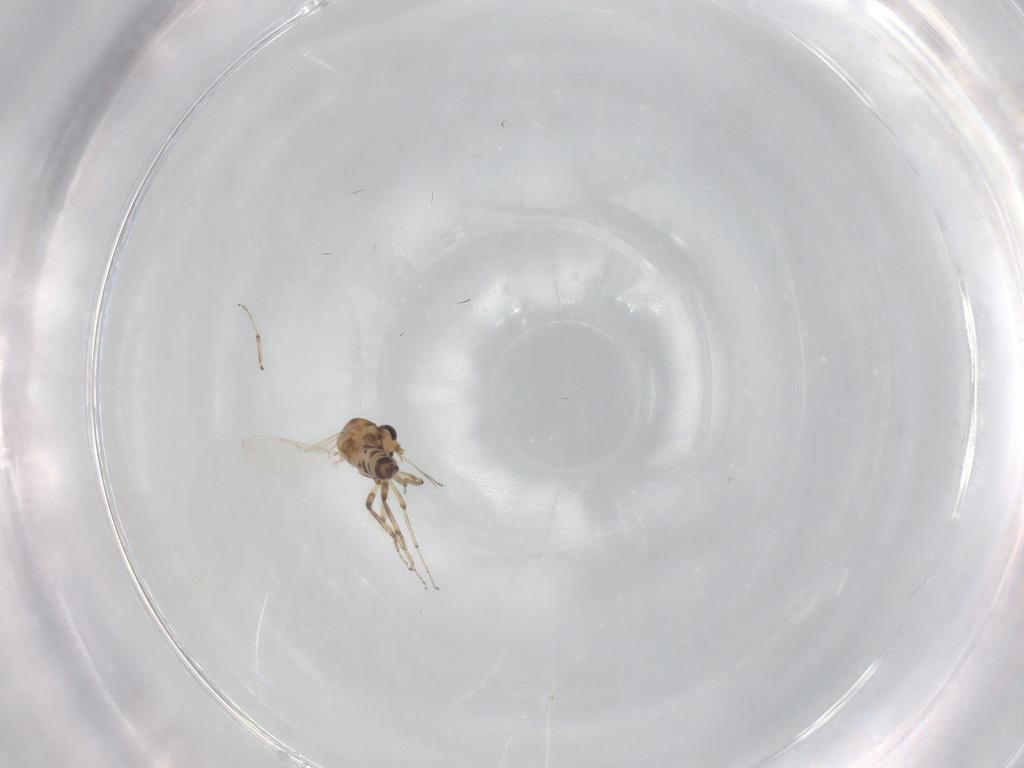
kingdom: Animalia
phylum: Arthropoda
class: Insecta
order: Diptera
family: Ceratopogonidae
